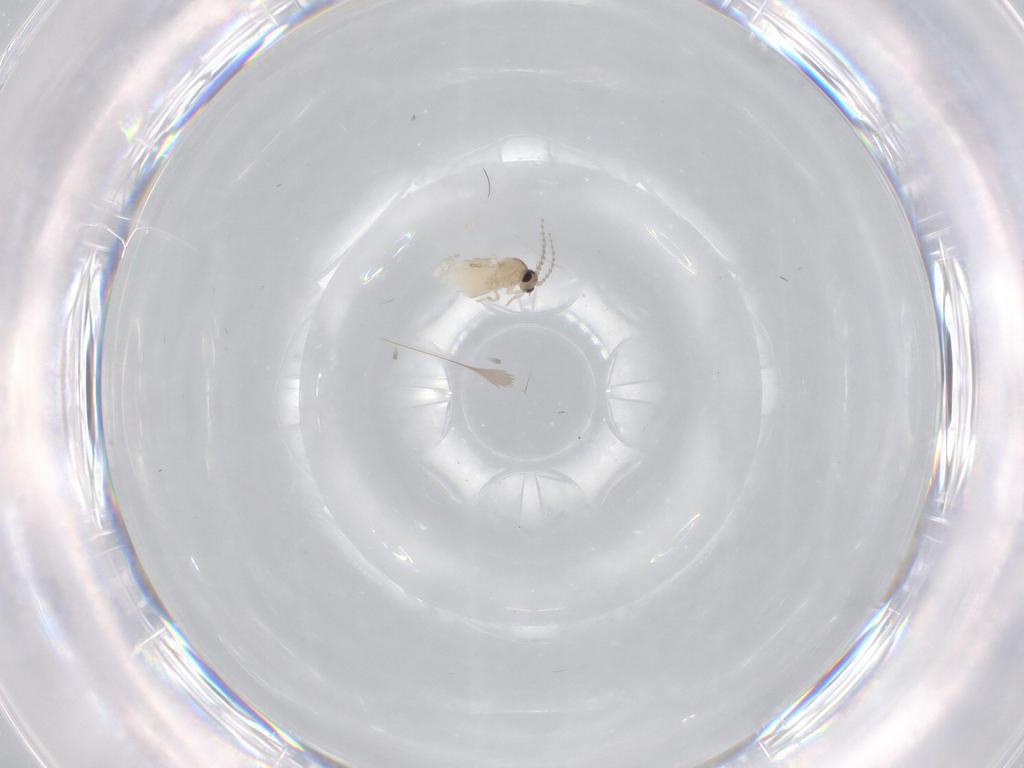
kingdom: Animalia
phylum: Arthropoda
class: Insecta
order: Diptera
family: Cecidomyiidae
